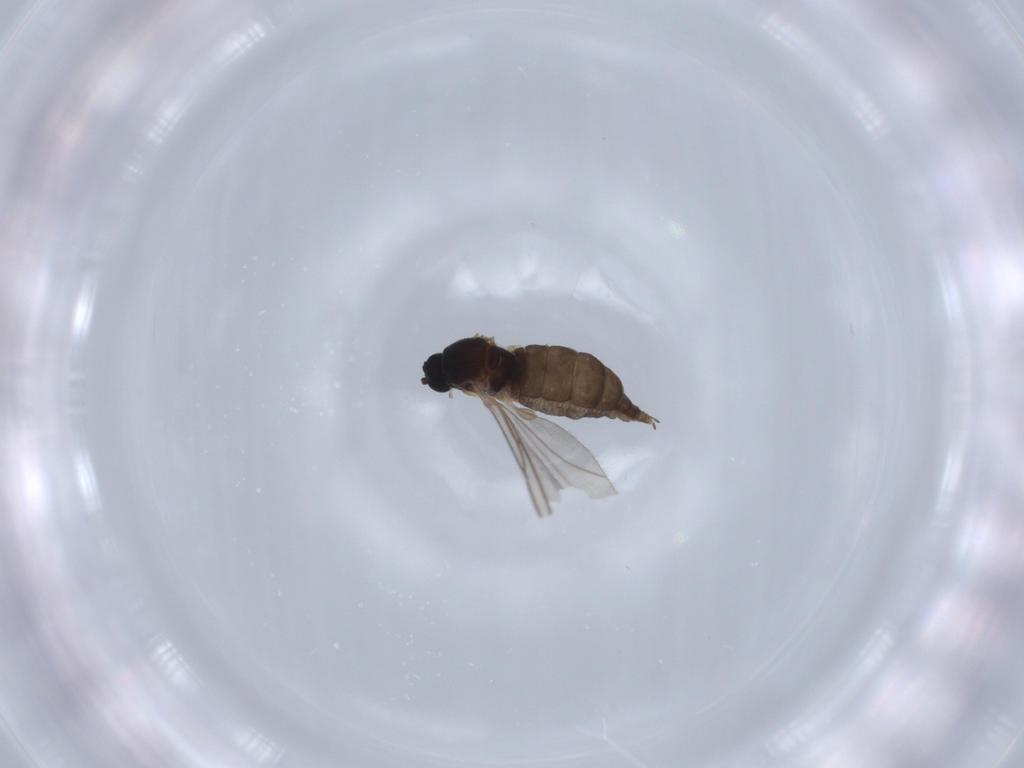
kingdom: Animalia
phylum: Arthropoda
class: Insecta
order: Diptera
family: Sciaridae
